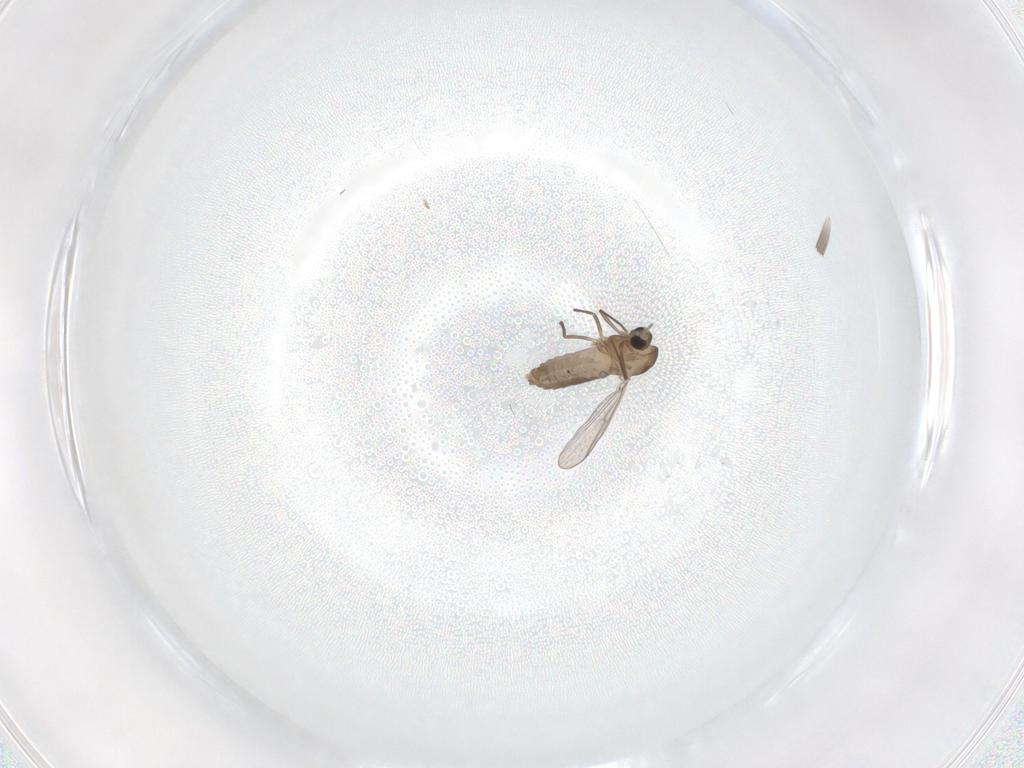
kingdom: Animalia
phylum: Arthropoda
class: Insecta
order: Diptera
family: Chironomidae
